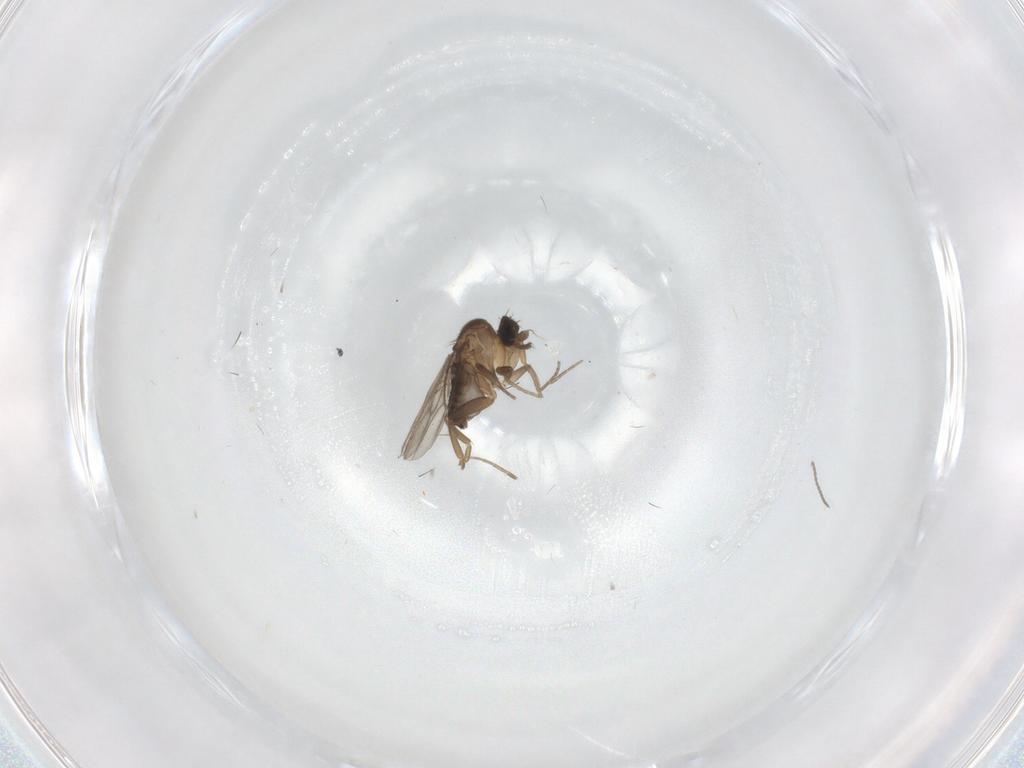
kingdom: Animalia
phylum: Arthropoda
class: Insecta
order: Diptera
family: Phoridae
